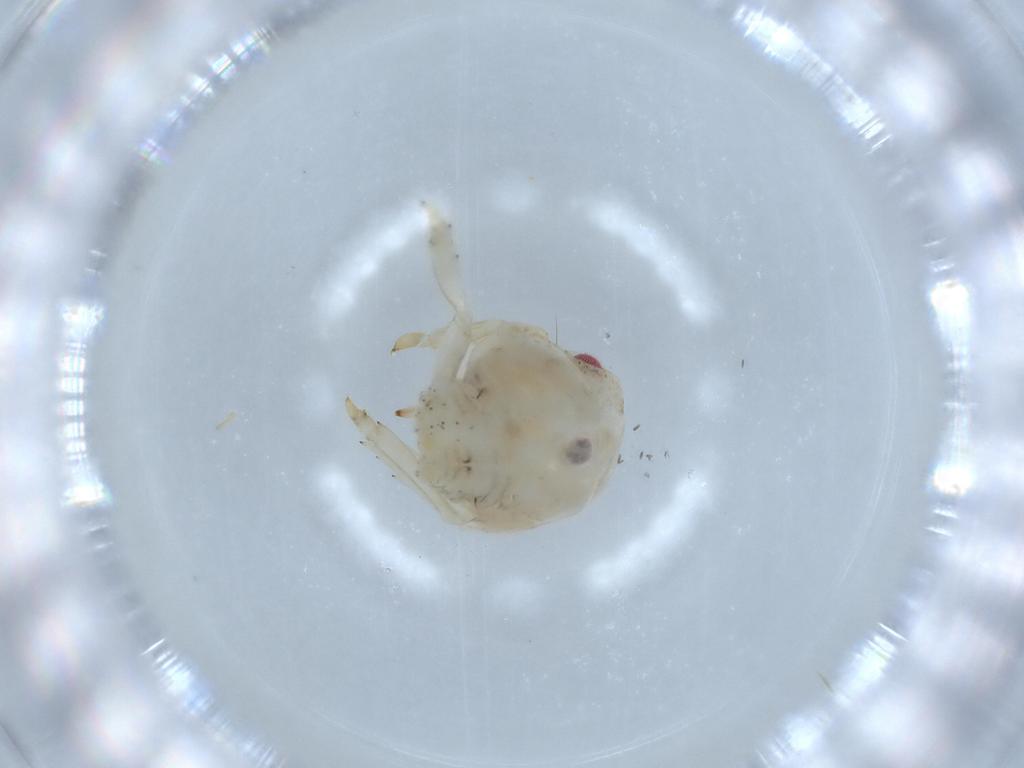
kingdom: Animalia
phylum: Arthropoda
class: Insecta
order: Hemiptera
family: Acanaloniidae
